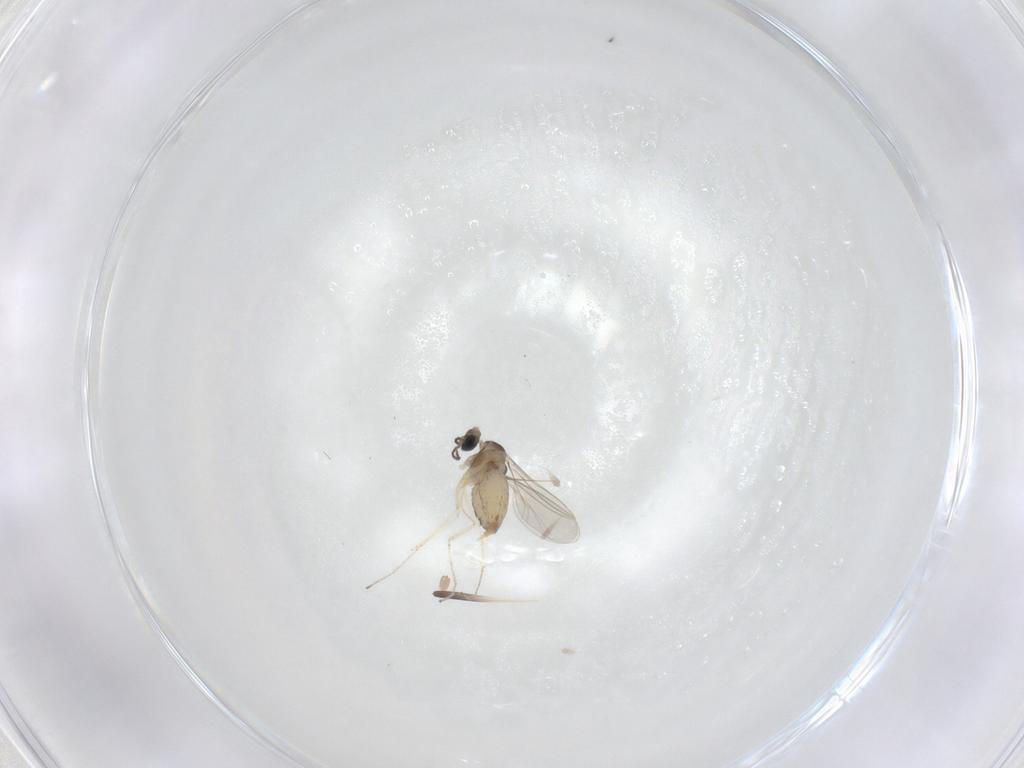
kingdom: Animalia
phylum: Arthropoda
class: Insecta
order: Diptera
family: Cecidomyiidae
